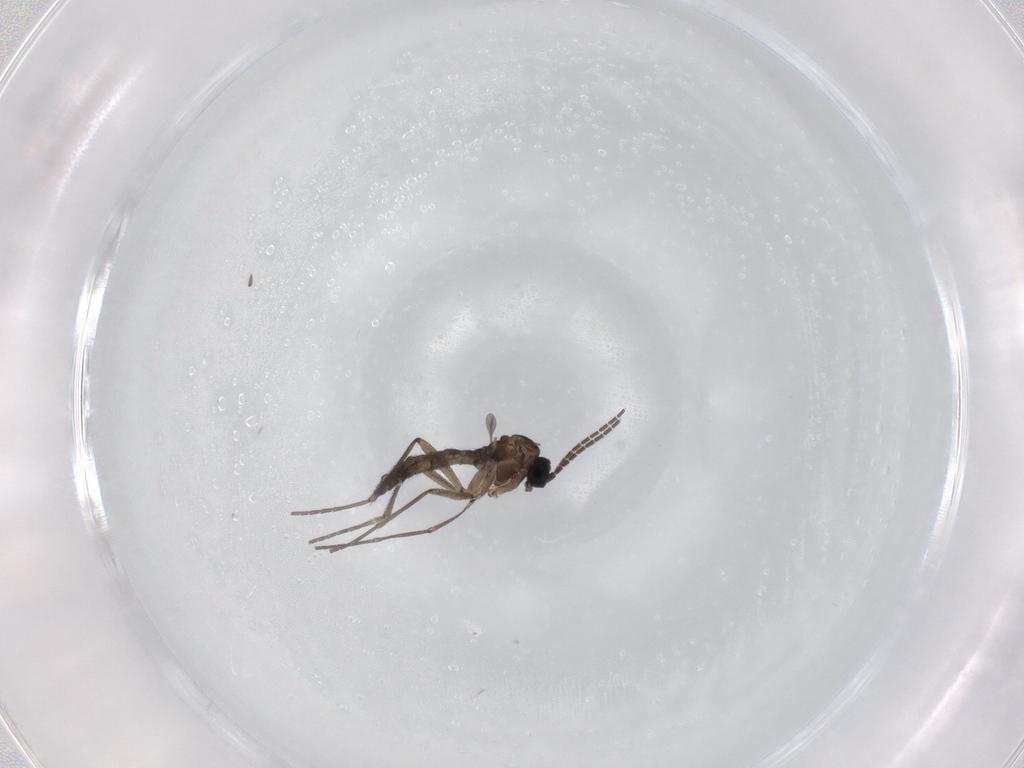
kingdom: Animalia
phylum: Arthropoda
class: Insecta
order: Diptera
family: Sciaridae
